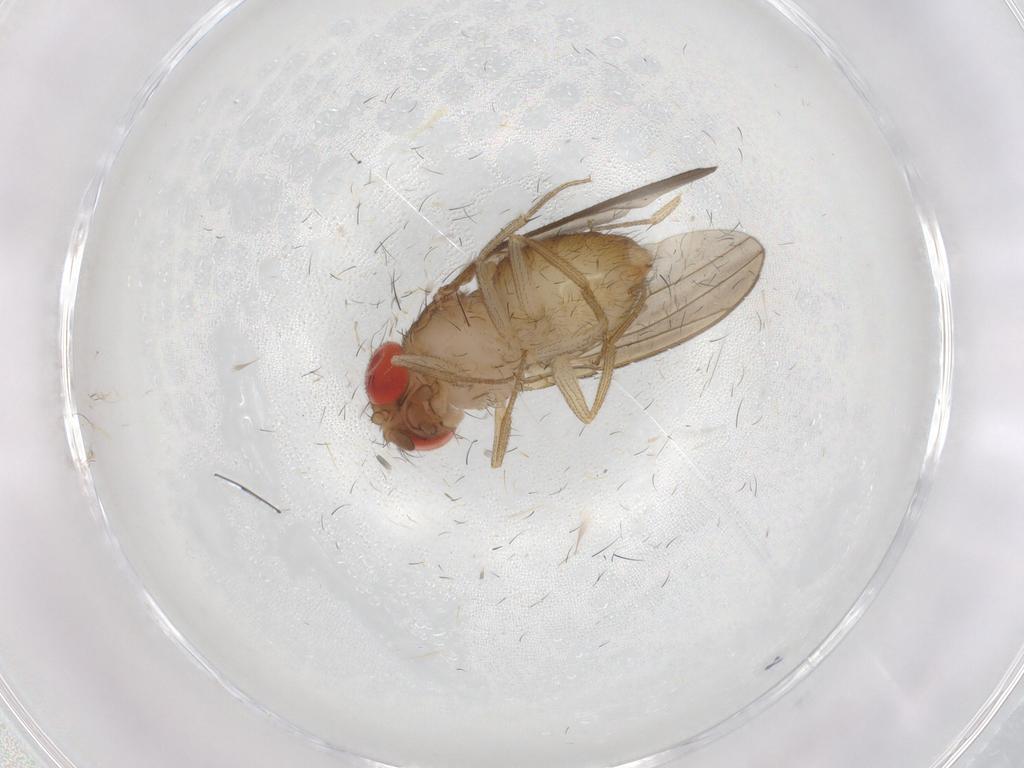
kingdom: Animalia
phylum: Arthropoda
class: Insecta
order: Diptera
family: Drosophilidae
